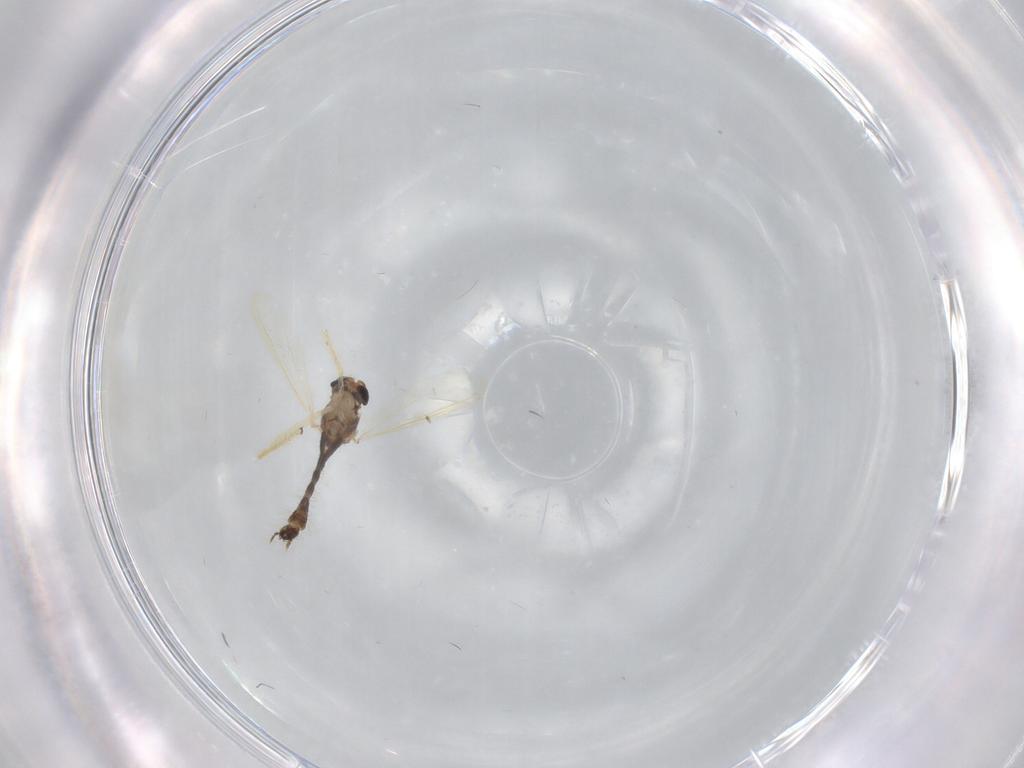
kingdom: Animalia
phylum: Arthropoda
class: Insecta
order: Diptera
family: Chironomidae
